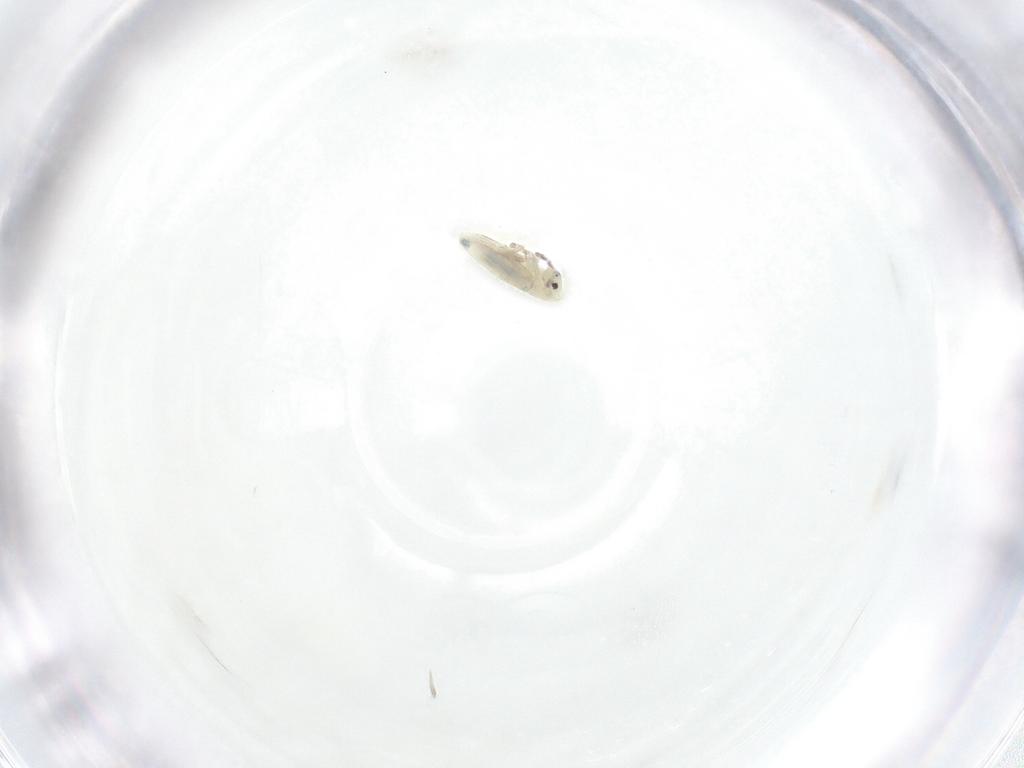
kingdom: Animalia
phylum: Arthropoda
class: Collembola
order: Entomobryomorpha
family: Entomobryidae
